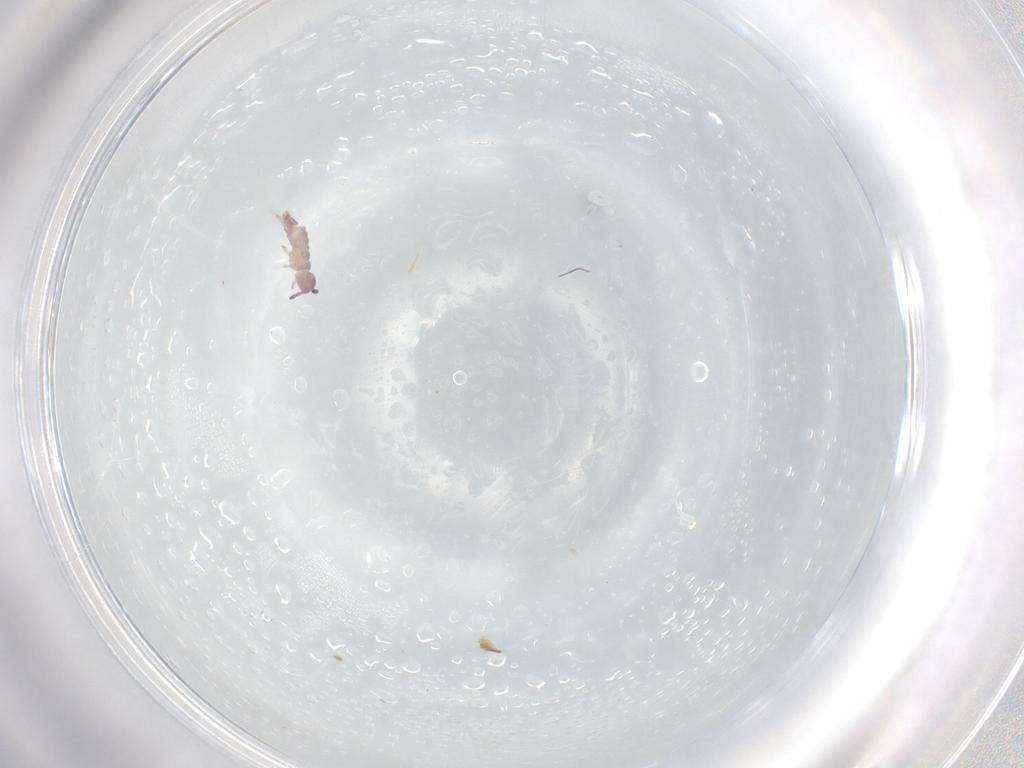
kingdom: Animalia
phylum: Arthropoda
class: Collembola
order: Entomobryomorpha
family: Isotomidae
